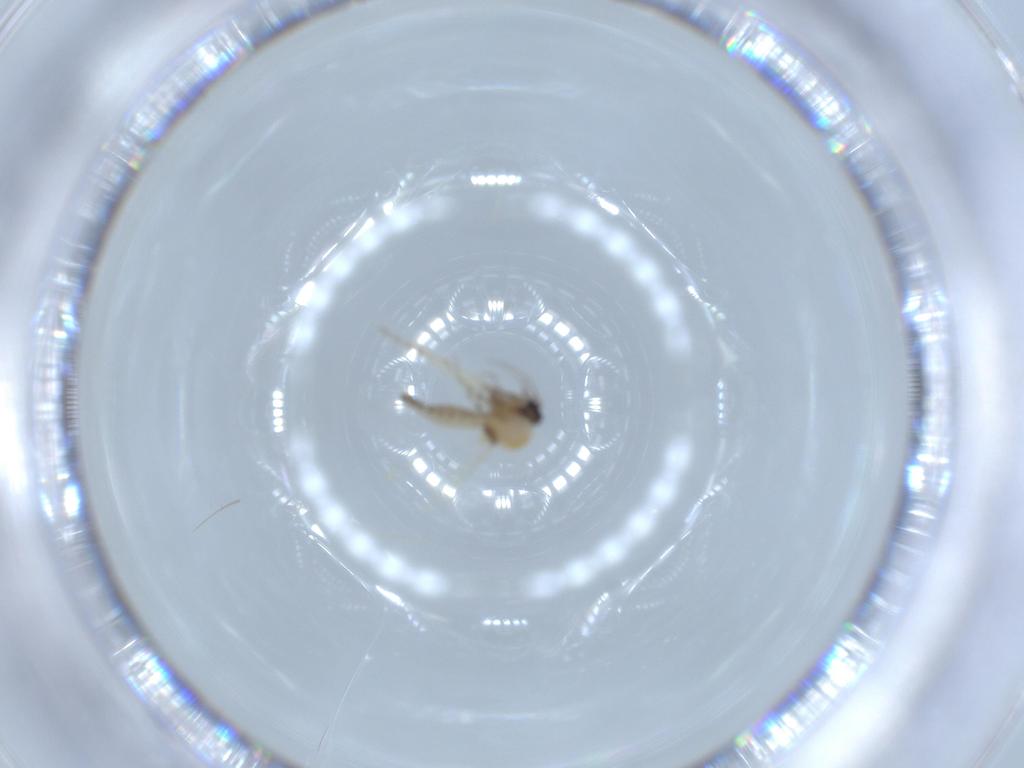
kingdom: Animalia
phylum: Arthropoda
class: Insecta
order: Diptera
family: Ceratopogonidae
